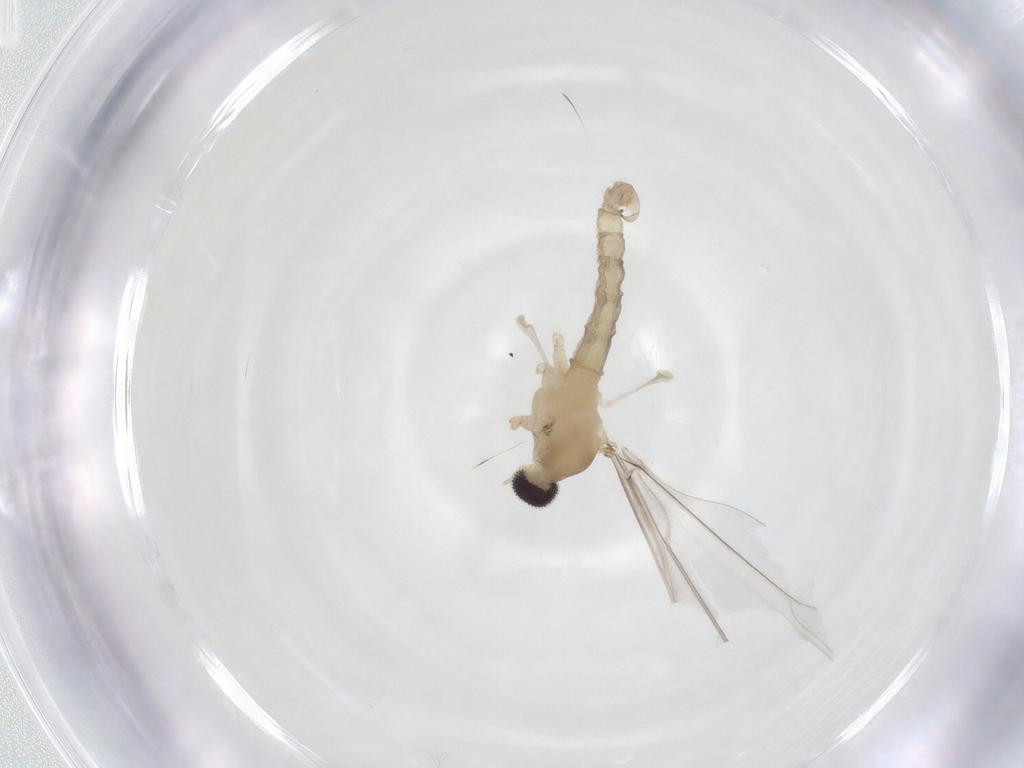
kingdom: Animalia
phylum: Arthropoda
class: Insecta
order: Diptera
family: Cecidomyiidae
